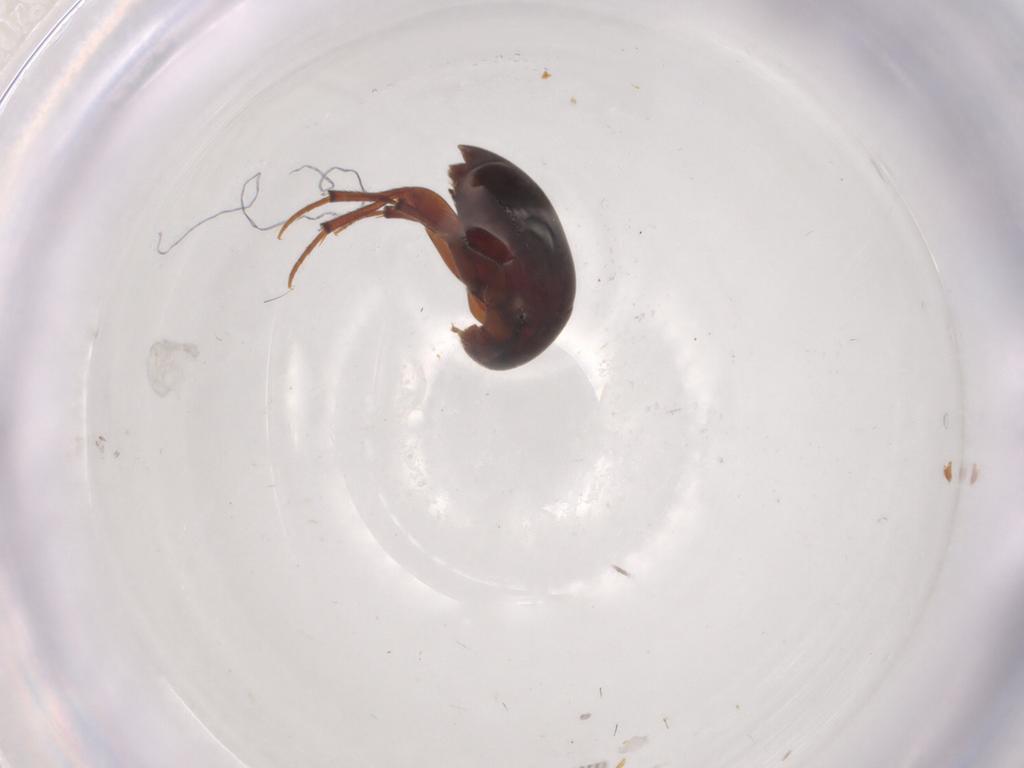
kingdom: Animalia
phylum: Arthropoda
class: Insecta
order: Coleoptera
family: Staphylinidae
